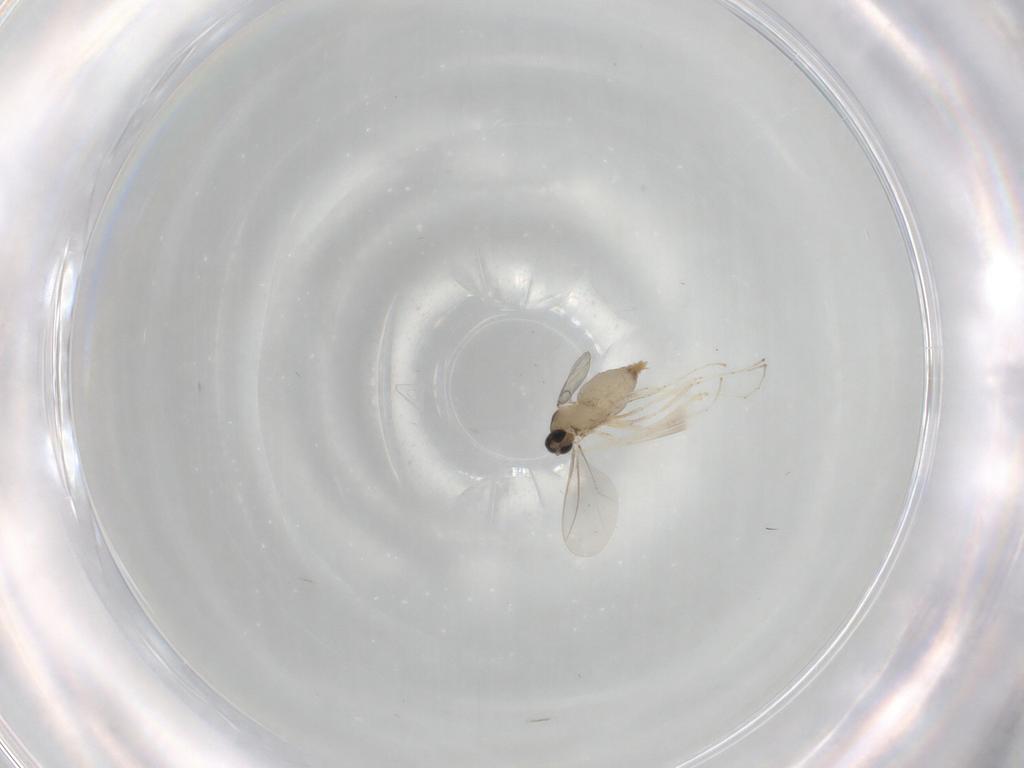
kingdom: Animalia
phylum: Arthropoda
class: Insecta
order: Diptera
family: Cecidomyiidae
